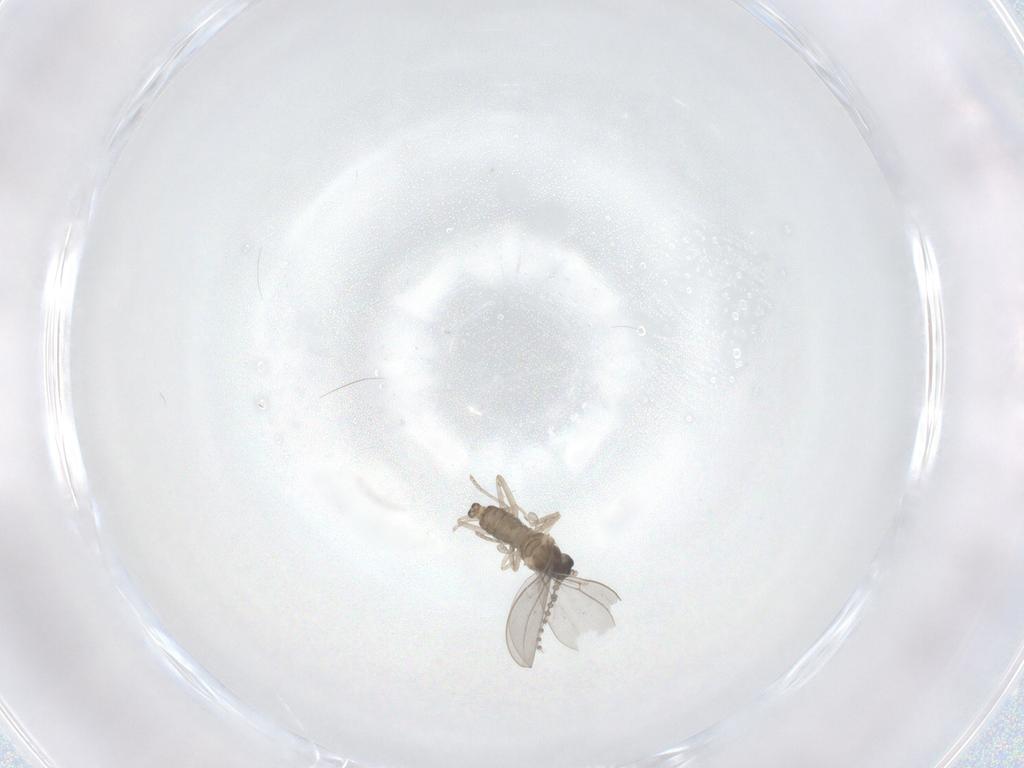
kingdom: Animalia
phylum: Arthropoda
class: Insecta
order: Diptera
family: Cecidomyiidae
